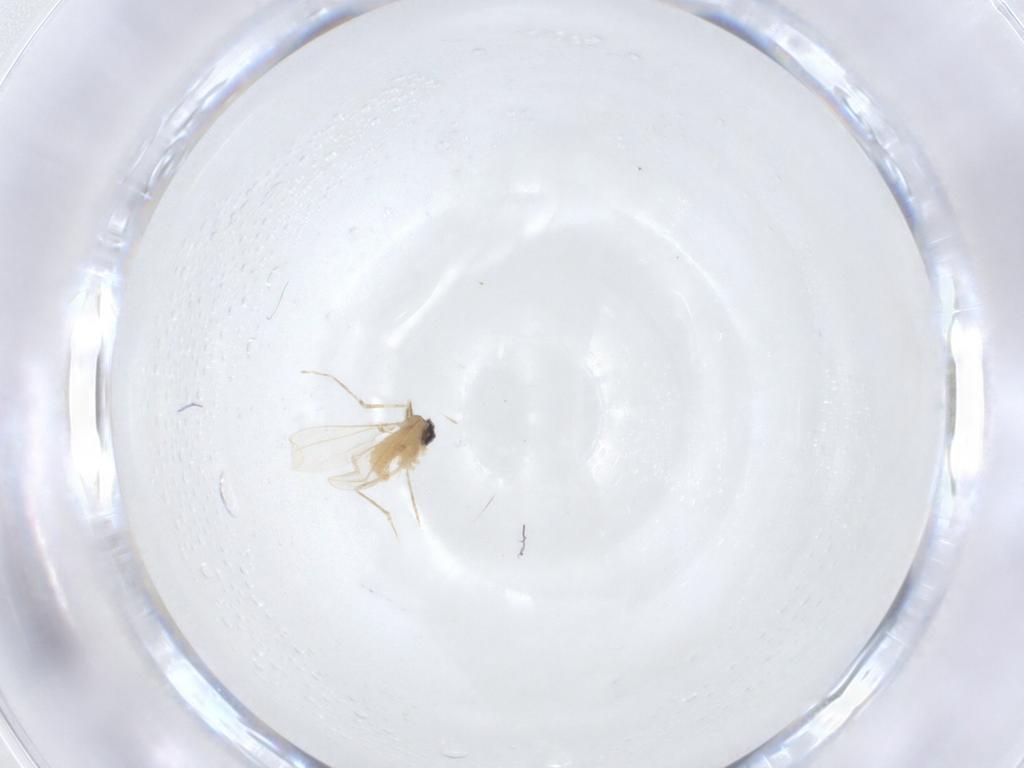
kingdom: Animalia
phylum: Arthropoda
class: Insecta
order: Diptera
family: Cecidomyiidae
